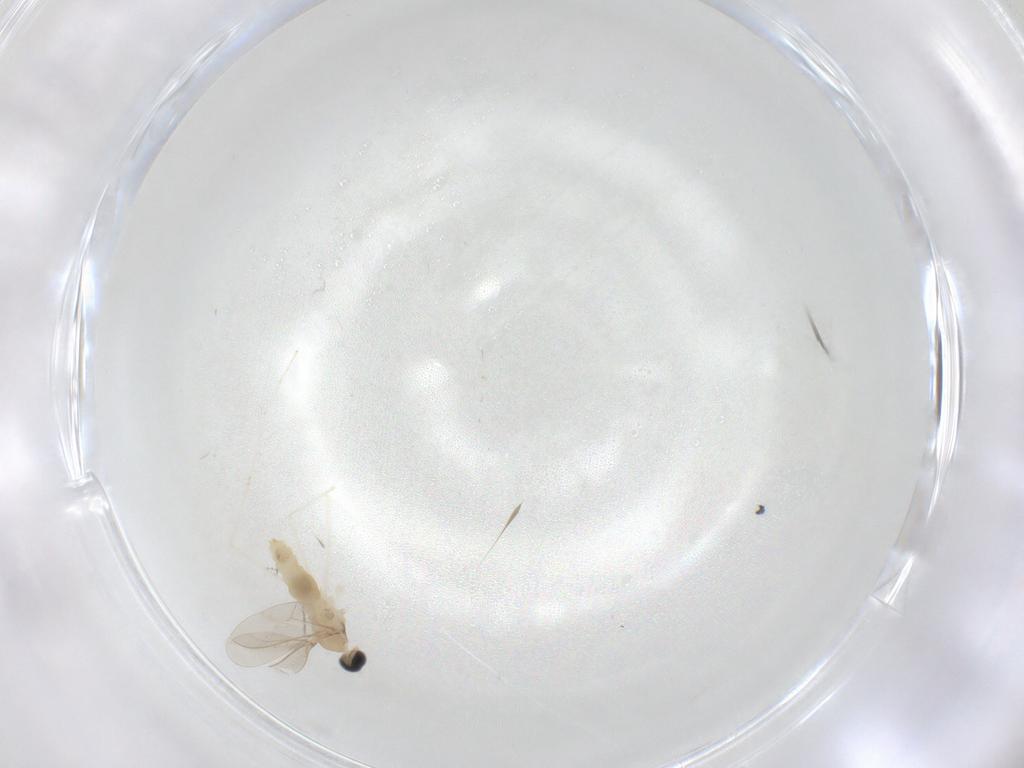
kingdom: Animalia
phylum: Arthropoda
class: Insecta
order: Diptera
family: Cecidomyiidae
